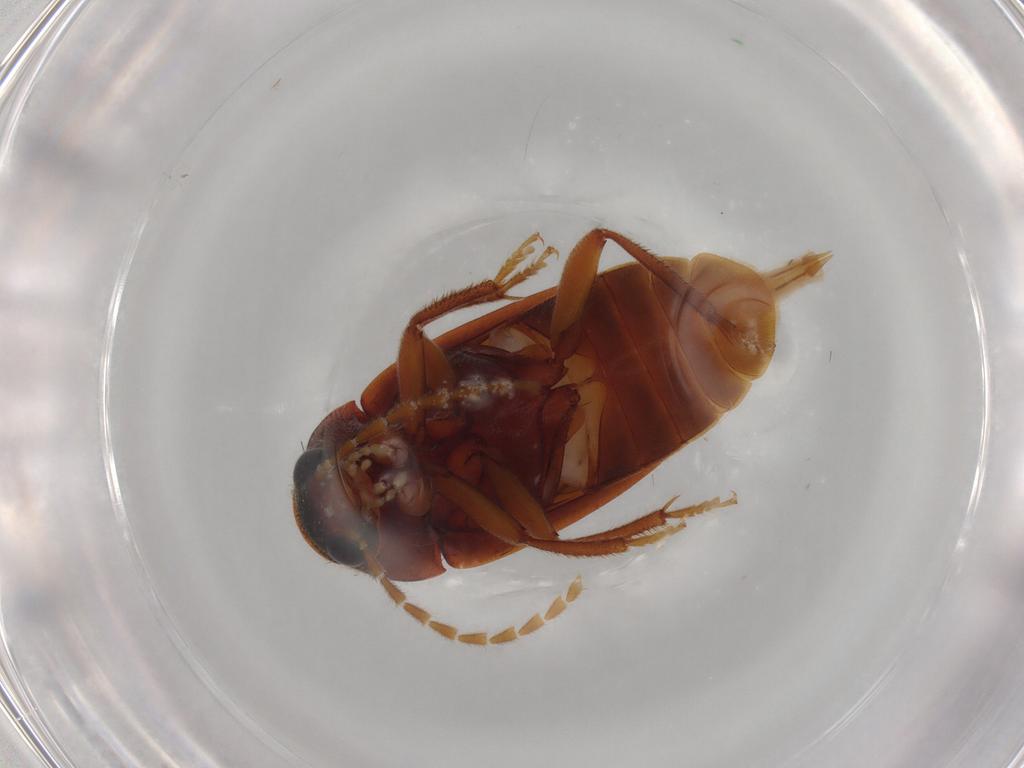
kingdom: Animalia
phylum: Arthropoda
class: Insecta
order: Coleoptera
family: Ptilodactylidae
